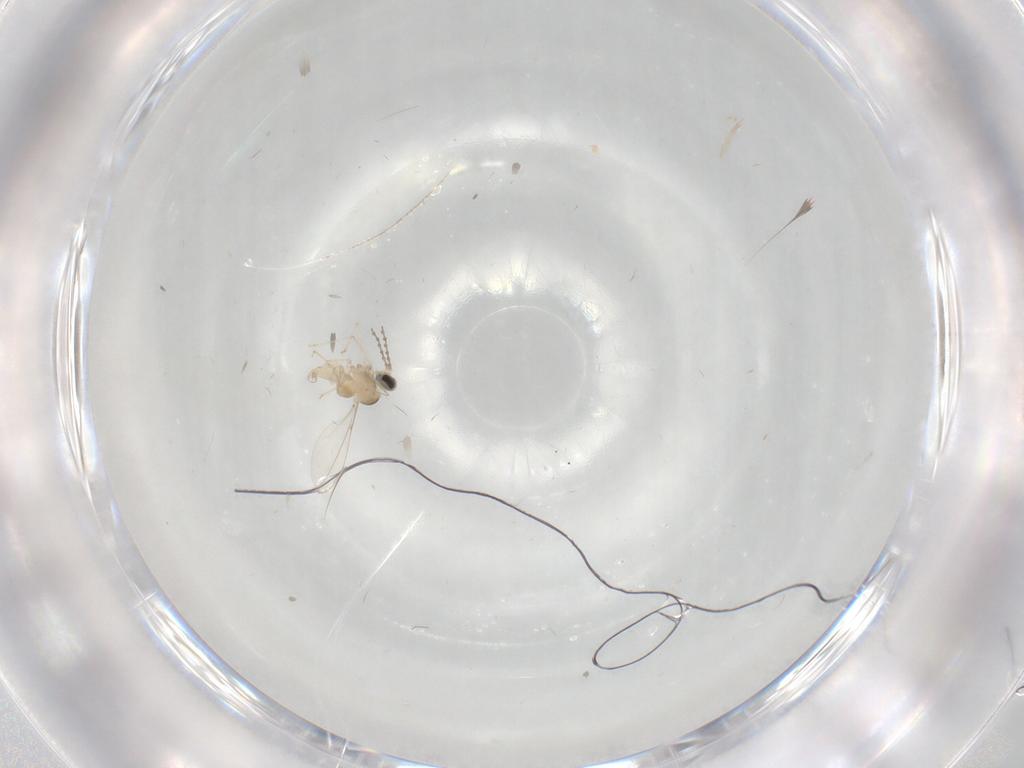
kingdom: Animalia
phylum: Arthropoda
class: Insecta
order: Diptera
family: Cecidomyiidae
